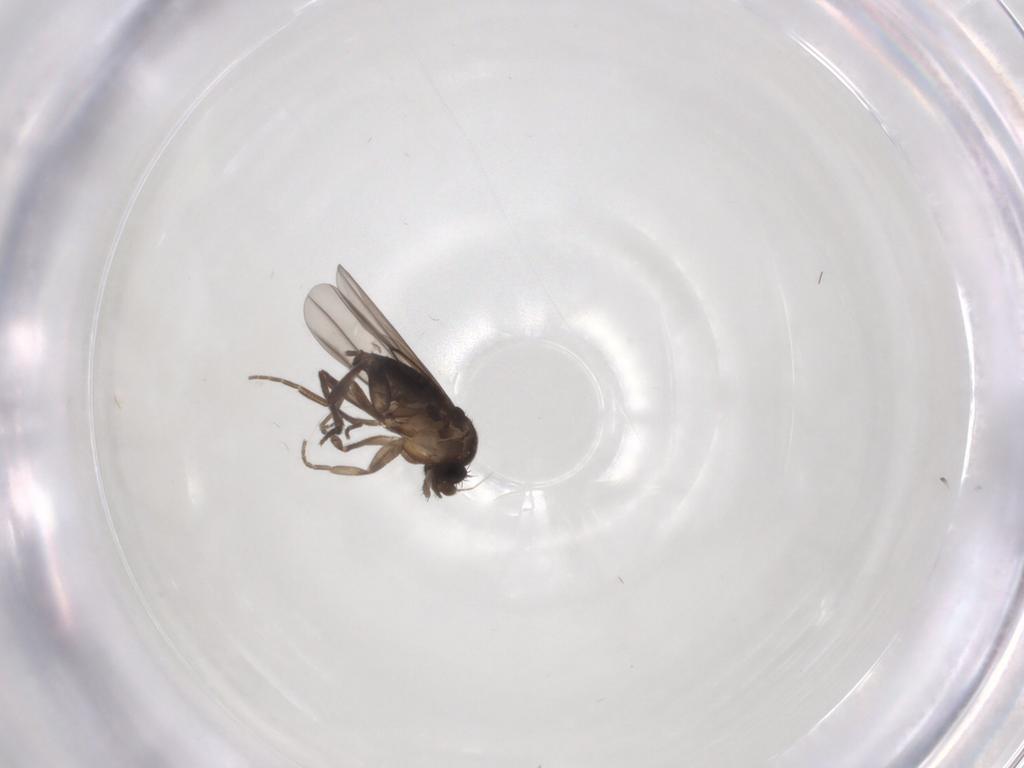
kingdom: Animalia
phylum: Arthropoda
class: Insecta
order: Diptera
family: Phoridae
